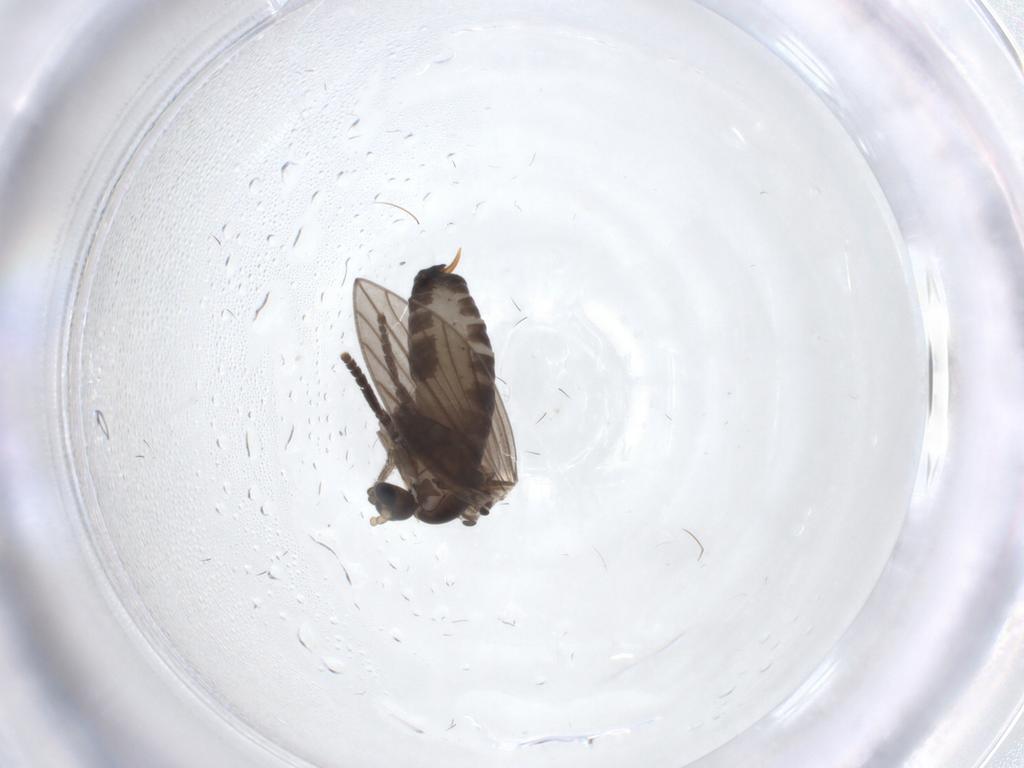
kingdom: Animalia
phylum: Arthropoda
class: Insecta
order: Diptera
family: Psychodidae
